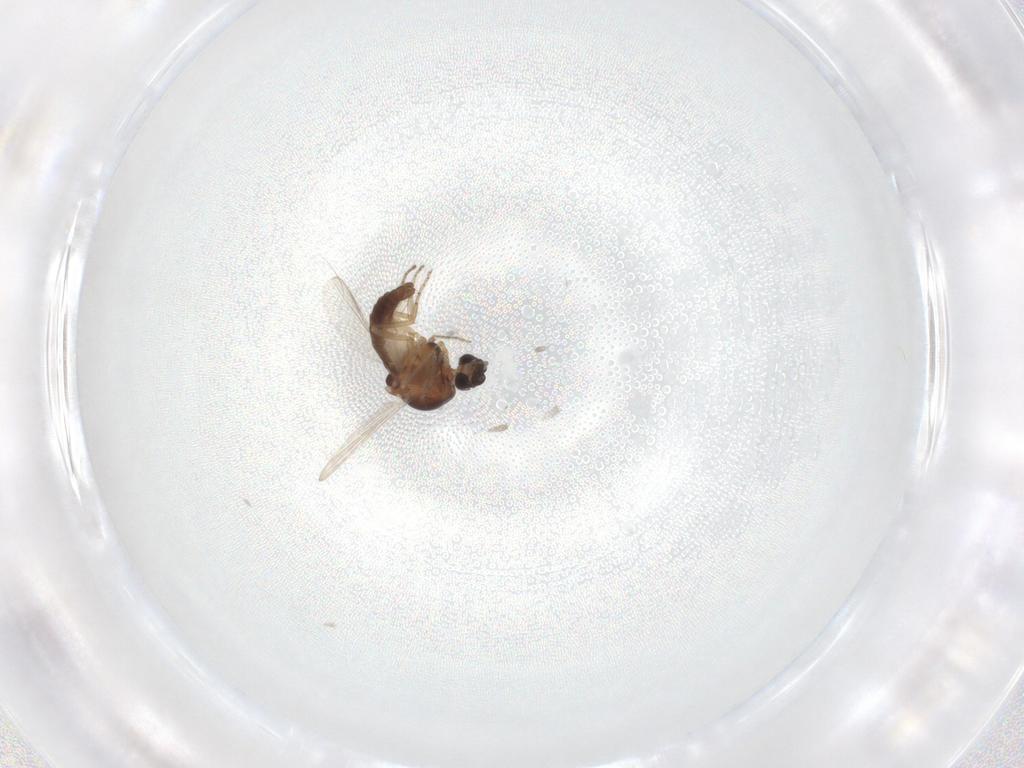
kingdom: Animalia
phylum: Arthropoda
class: Insecta
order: Diptera
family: Ceratopogonidae
